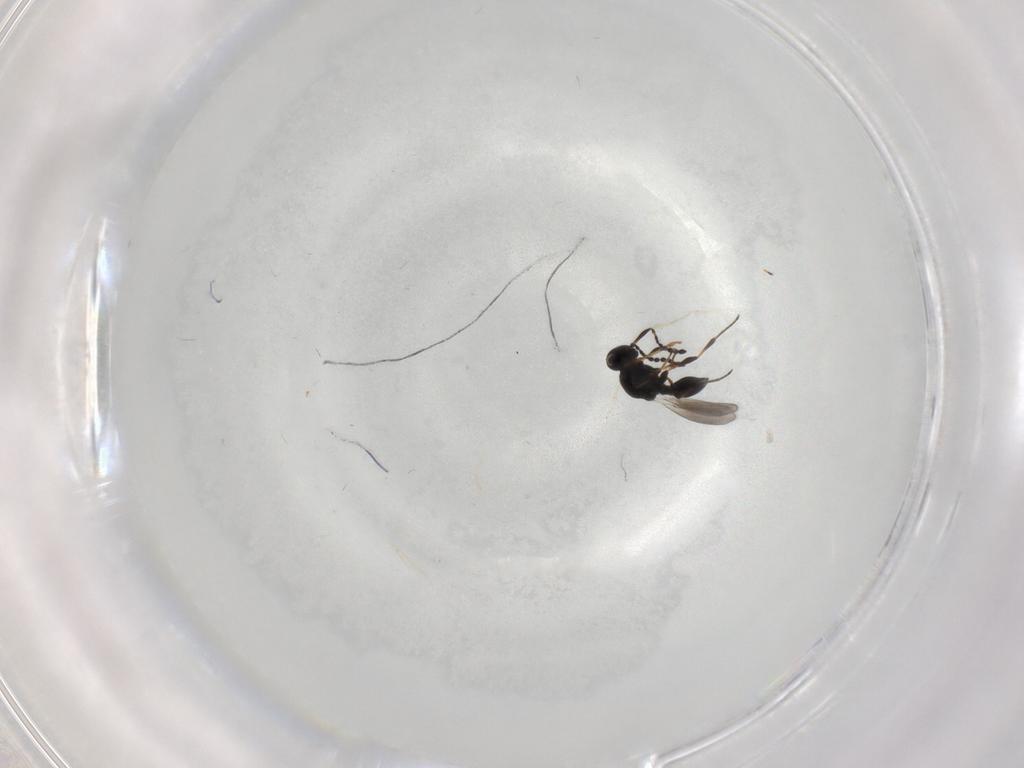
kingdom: Animalia
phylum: Arthropoda
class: Insecta
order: Hymenoptera
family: Platygastridae
